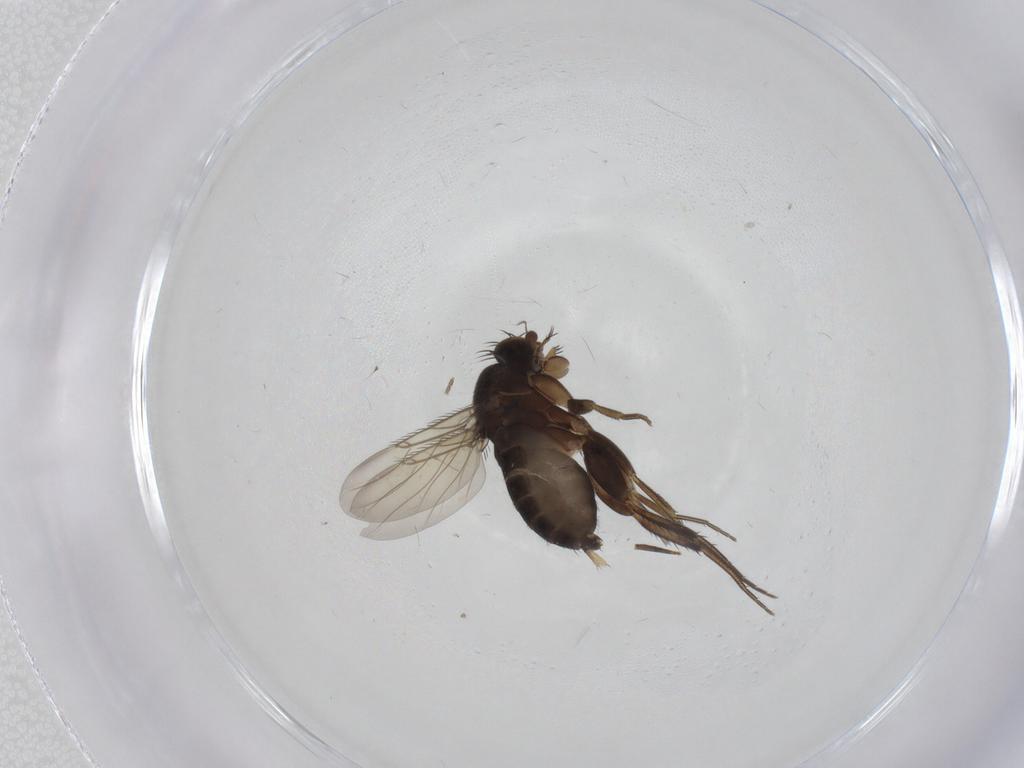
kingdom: Animalia
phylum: Arthropoda
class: Insecta
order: Diptera
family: Phoridae
